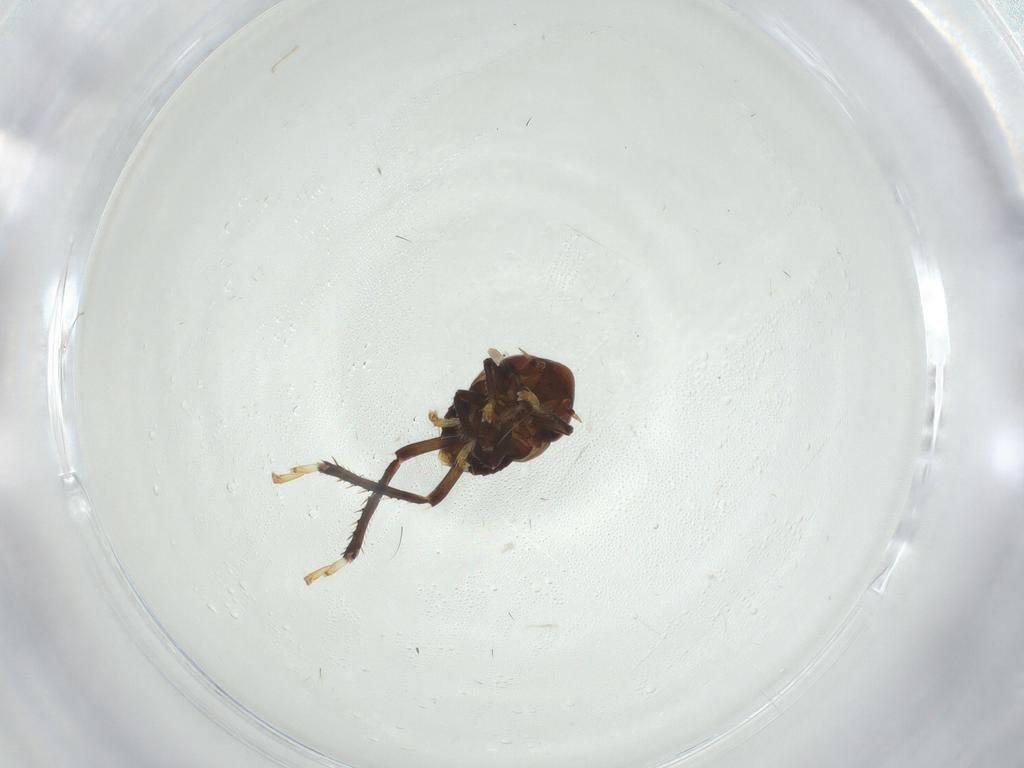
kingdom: Animalia
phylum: Arthropoda
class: Insecta
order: Hemiptera
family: Cicadellidae
